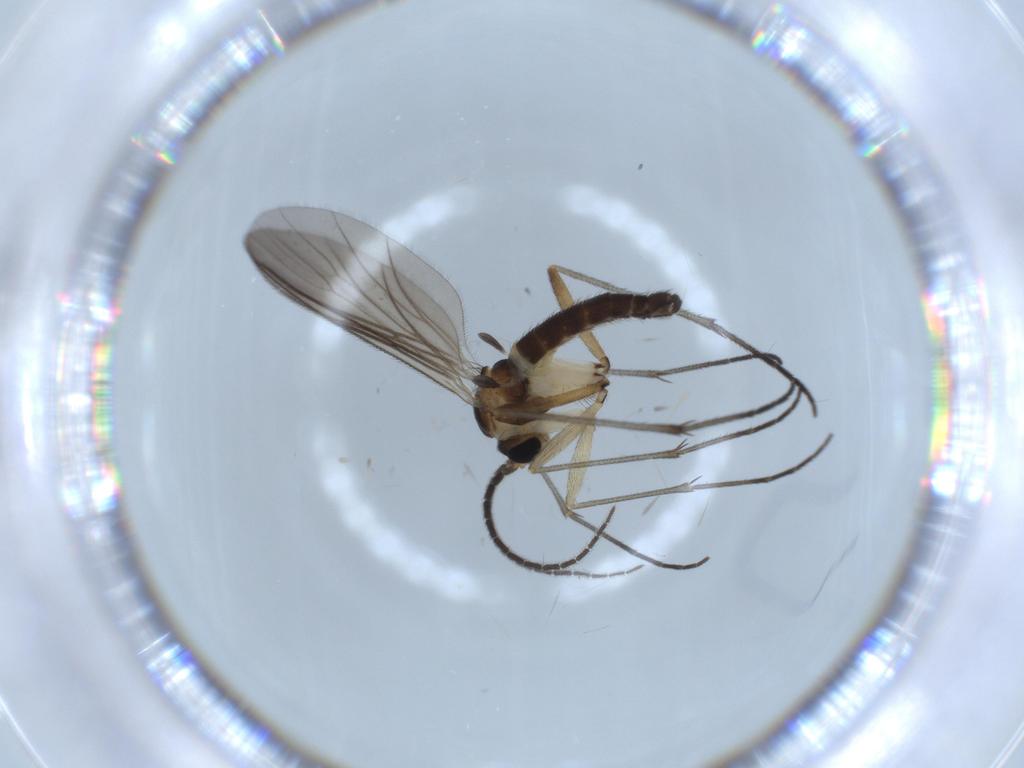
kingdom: Animalia
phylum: Arthropoda
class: Insecta
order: Diptera
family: Sciaridae
